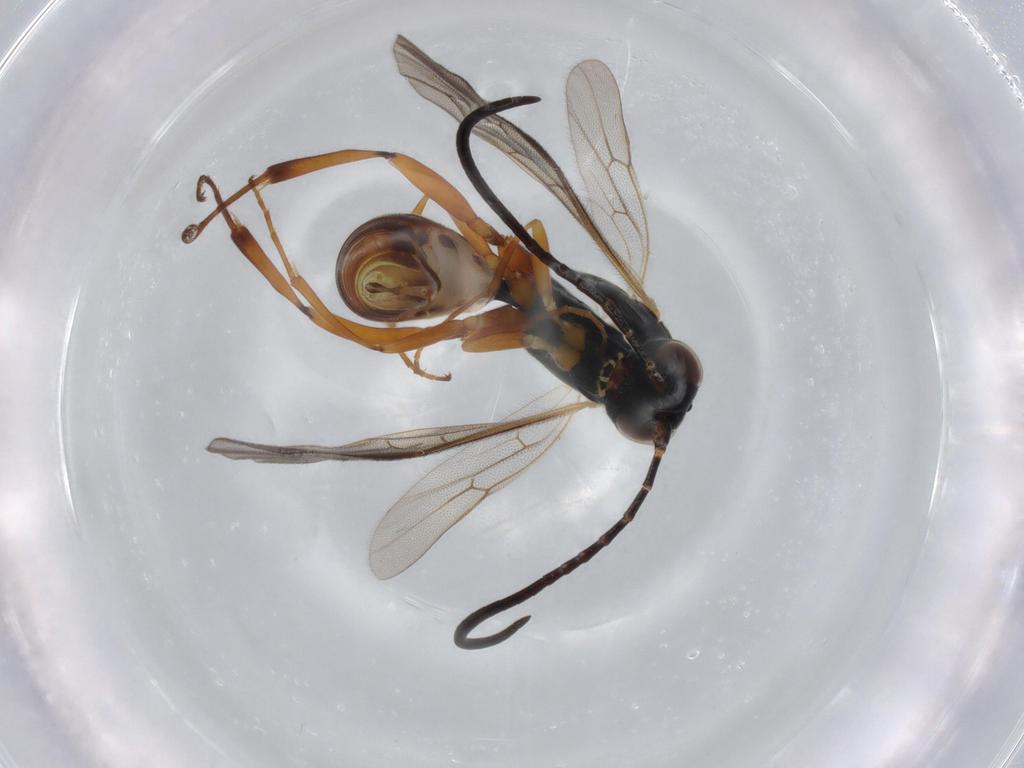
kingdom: Animalia
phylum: Arthropoda
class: Insecta
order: Hymenoptera
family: Ichneumonidae
